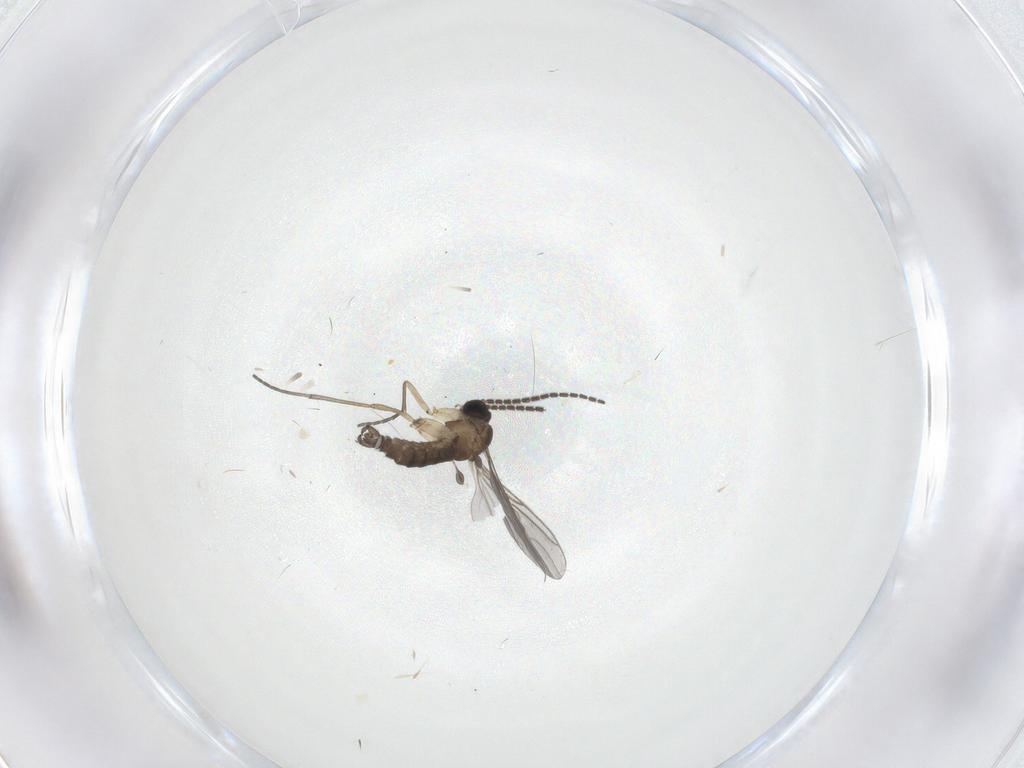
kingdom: Animalia
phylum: Arthropoda
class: Insecta
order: Diptera
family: Sciaridae
